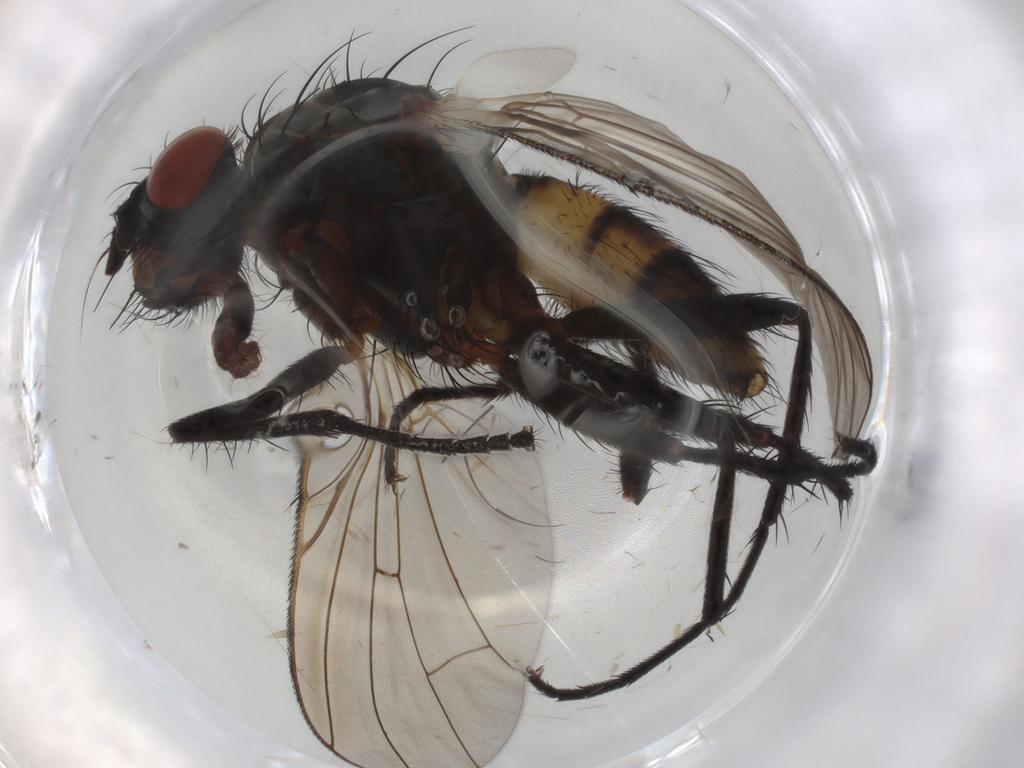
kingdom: Animalia
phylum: Arthropoda
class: Insecta
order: Diptera
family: Anthomyiidae
